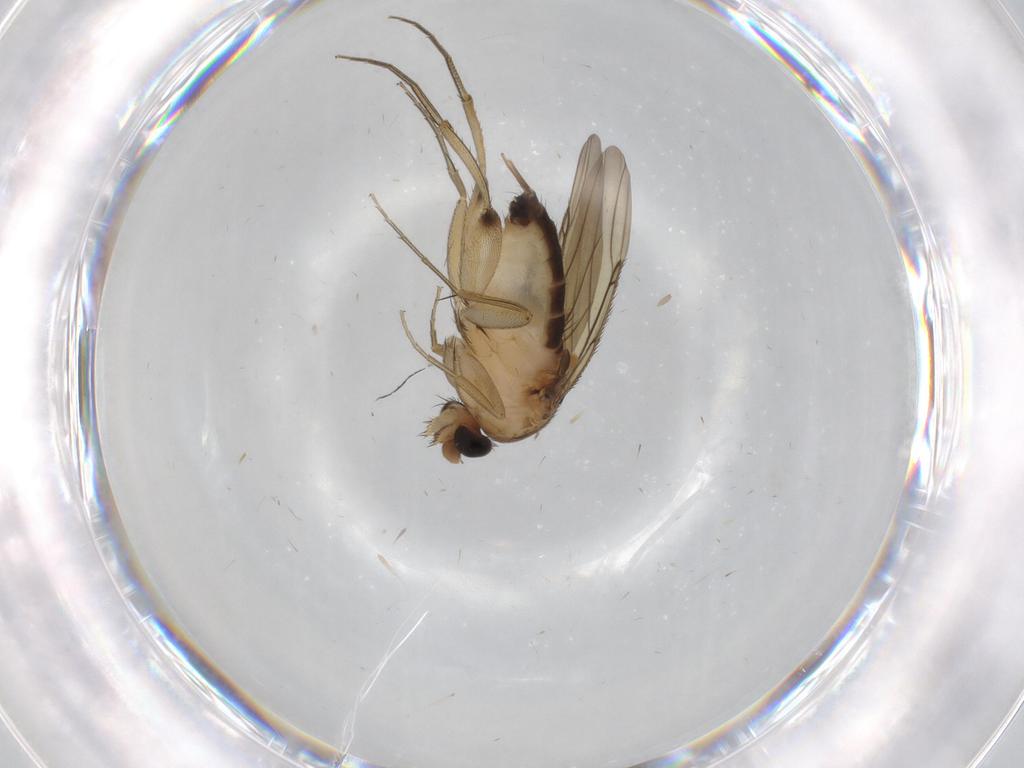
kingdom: Animalia
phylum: Arthropoda
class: Insecta
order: Diptera
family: Phoridae
